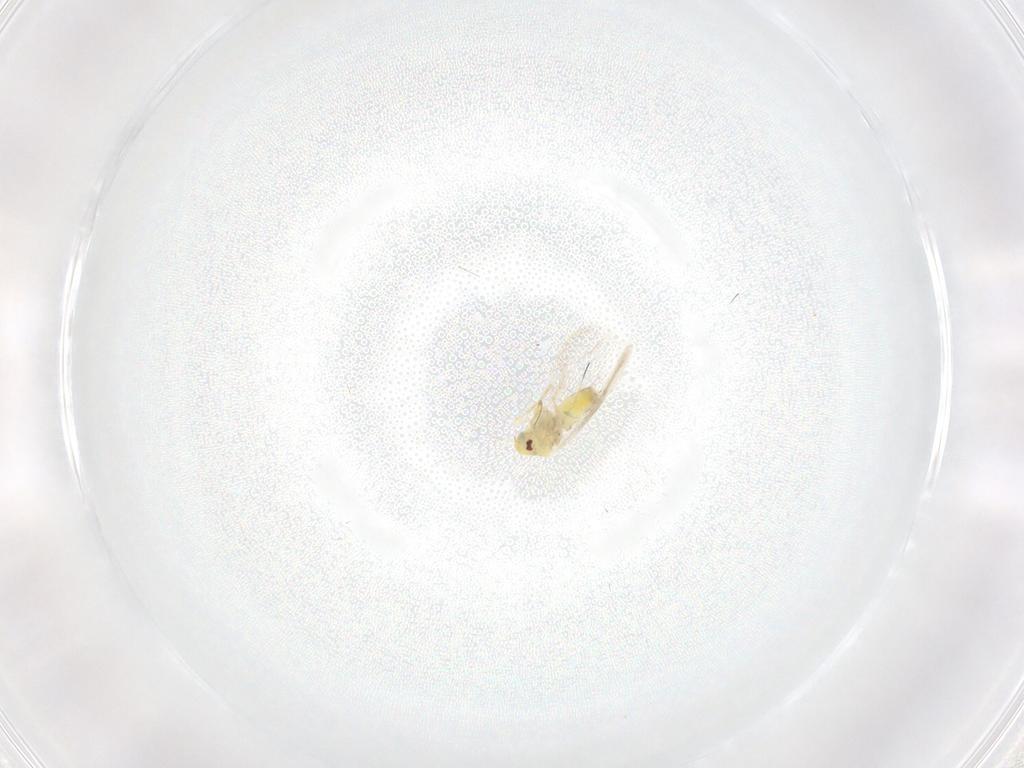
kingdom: Animalia
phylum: Arthropoda
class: Insecta
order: Hemiptera
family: Aleyrodidae
